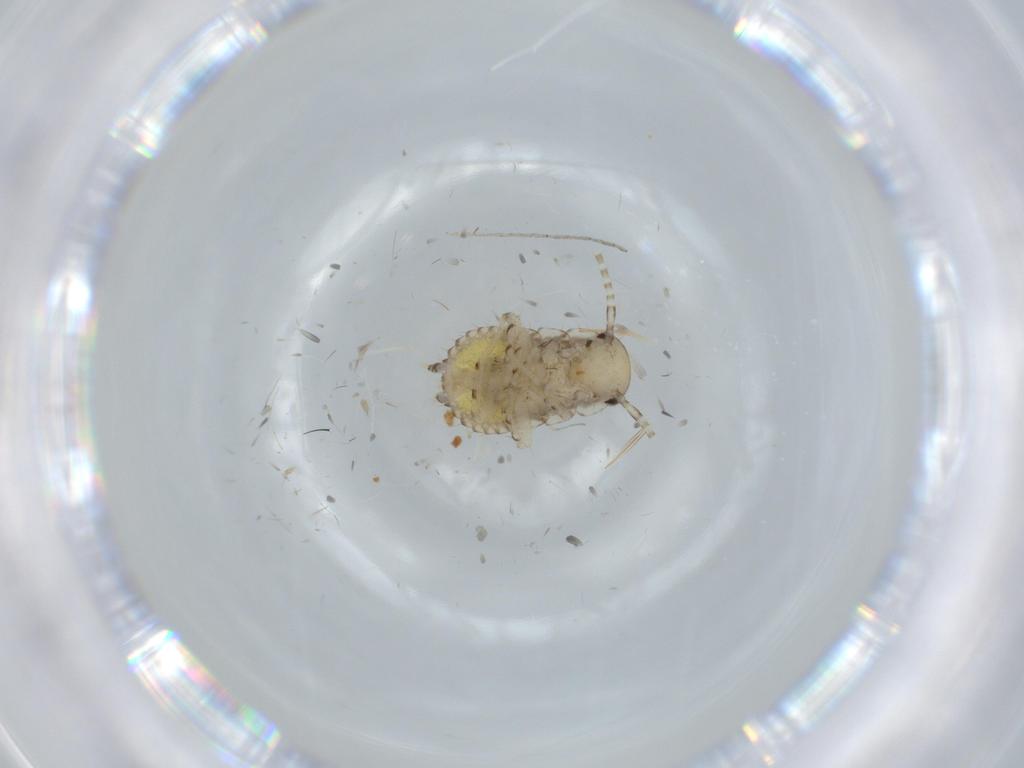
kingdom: Animalia
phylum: Arthropoda
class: Insecta
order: Blattodea
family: Ectobiidae
